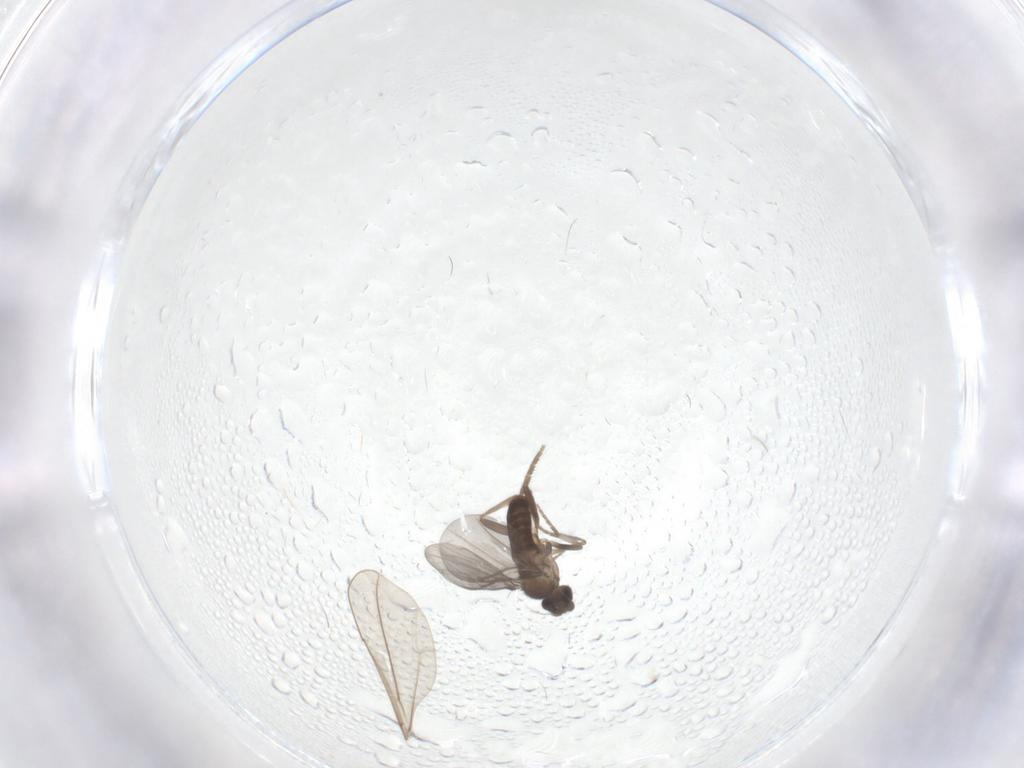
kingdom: Animalia
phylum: Arthropoda
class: Insecta
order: Diptera
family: Phoridae
